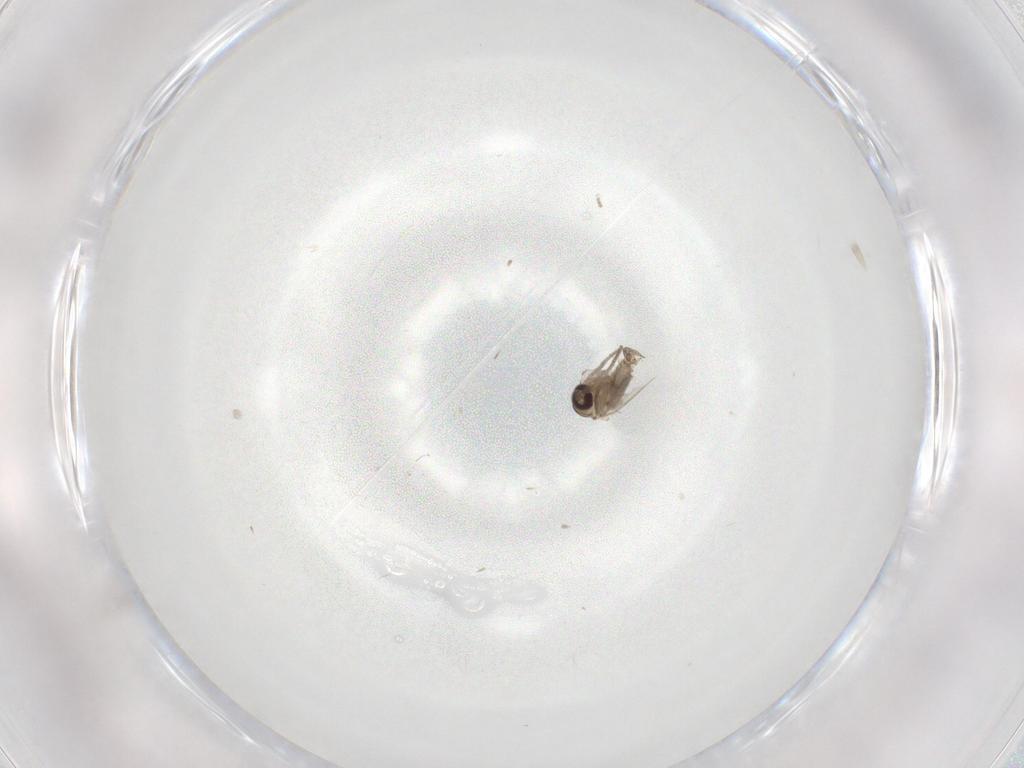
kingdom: Animalia
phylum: Arthropoda
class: Insecta
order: Diptera
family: Psychodidae
